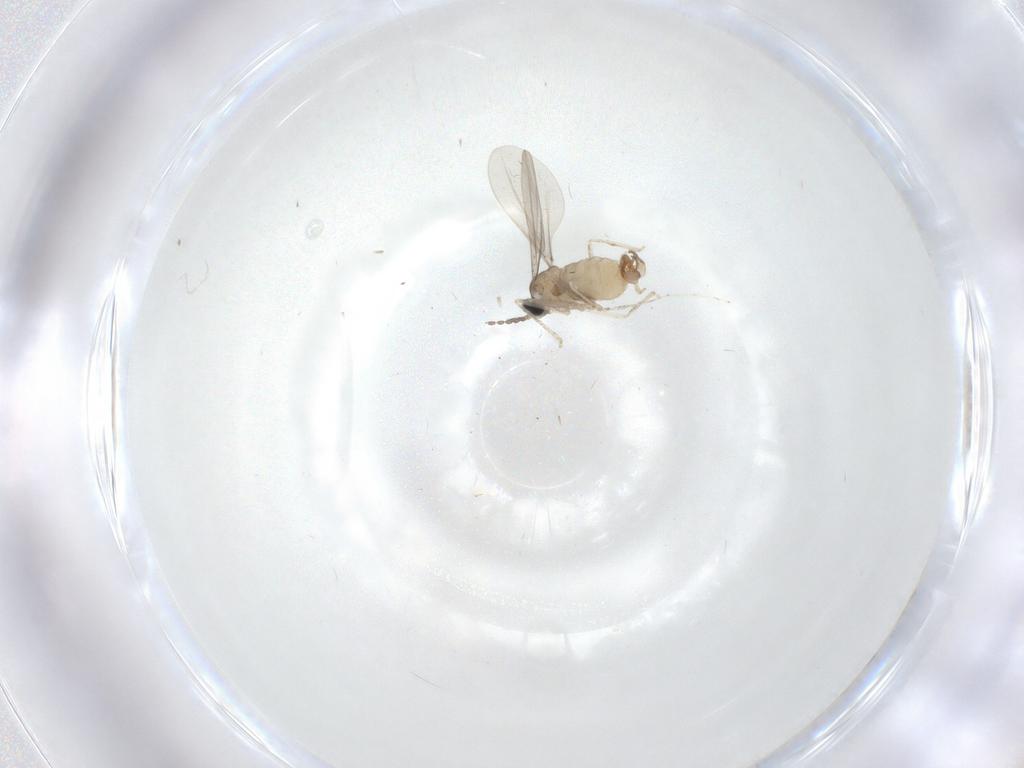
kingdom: Animalia
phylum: Arthropoda
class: Insecta
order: Diptera
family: Cecidomyiidae
